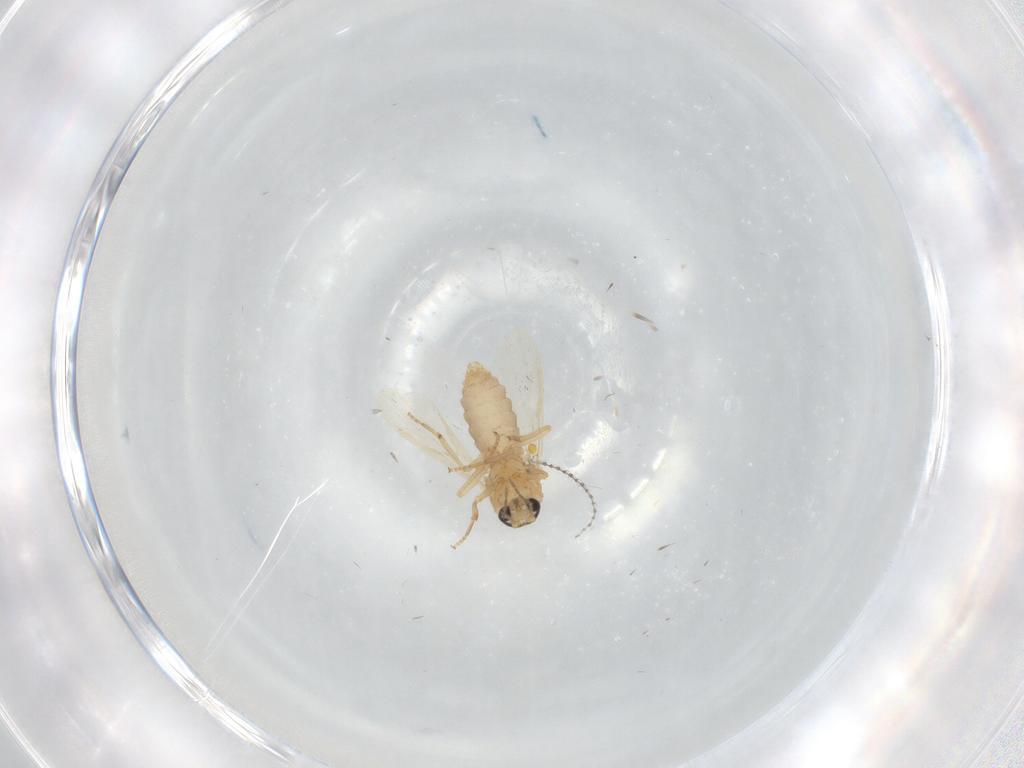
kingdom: Animalia
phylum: Arthropoda
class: Insecta
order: Diptera
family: Ceratopogonidae
